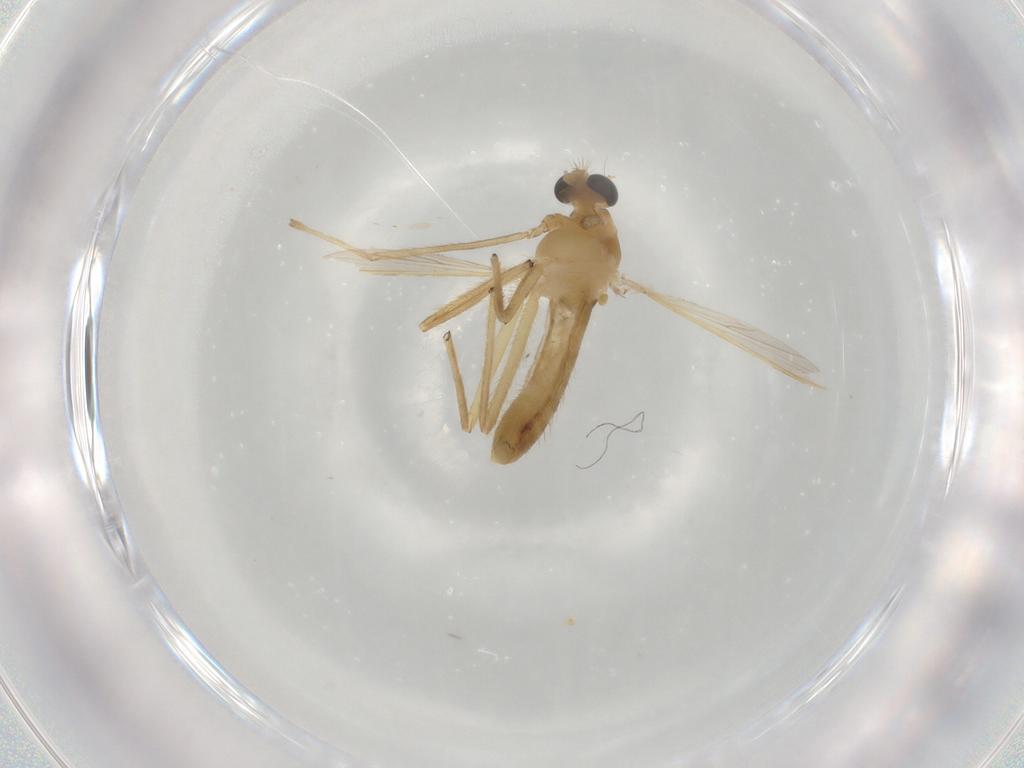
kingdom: Animalia
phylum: Arthropoda
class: Insecta
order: Diptera
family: Chironomidae
